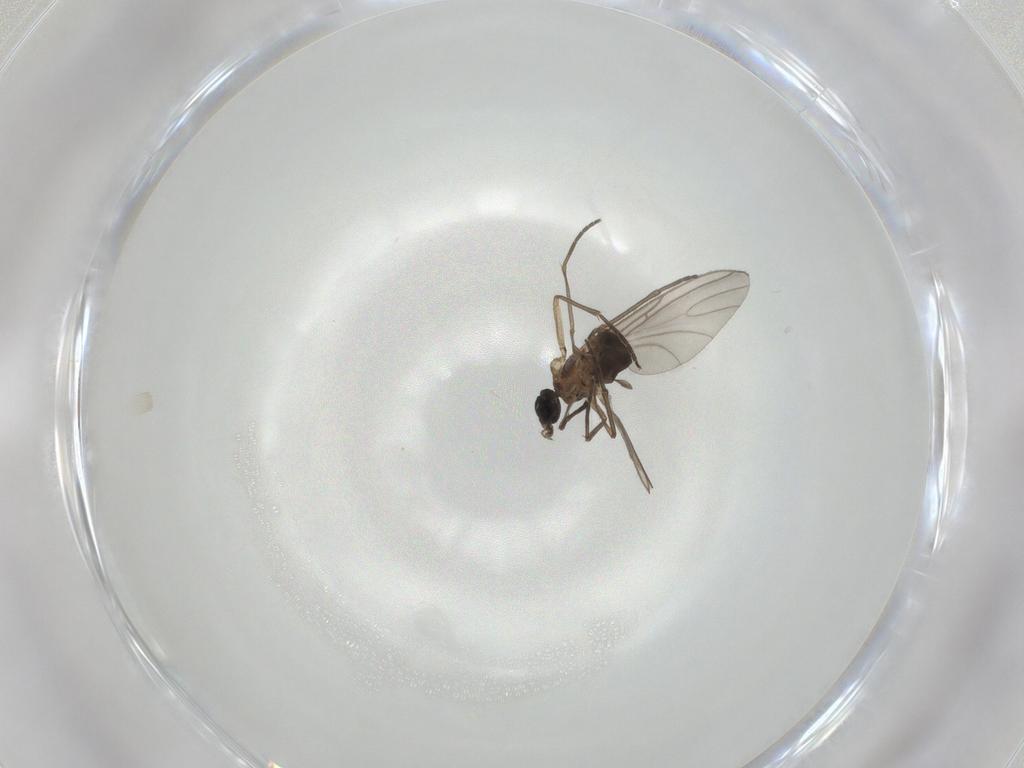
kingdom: Animalia
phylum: Arthropoda
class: Insecta
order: Diptera
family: Sciaridae
